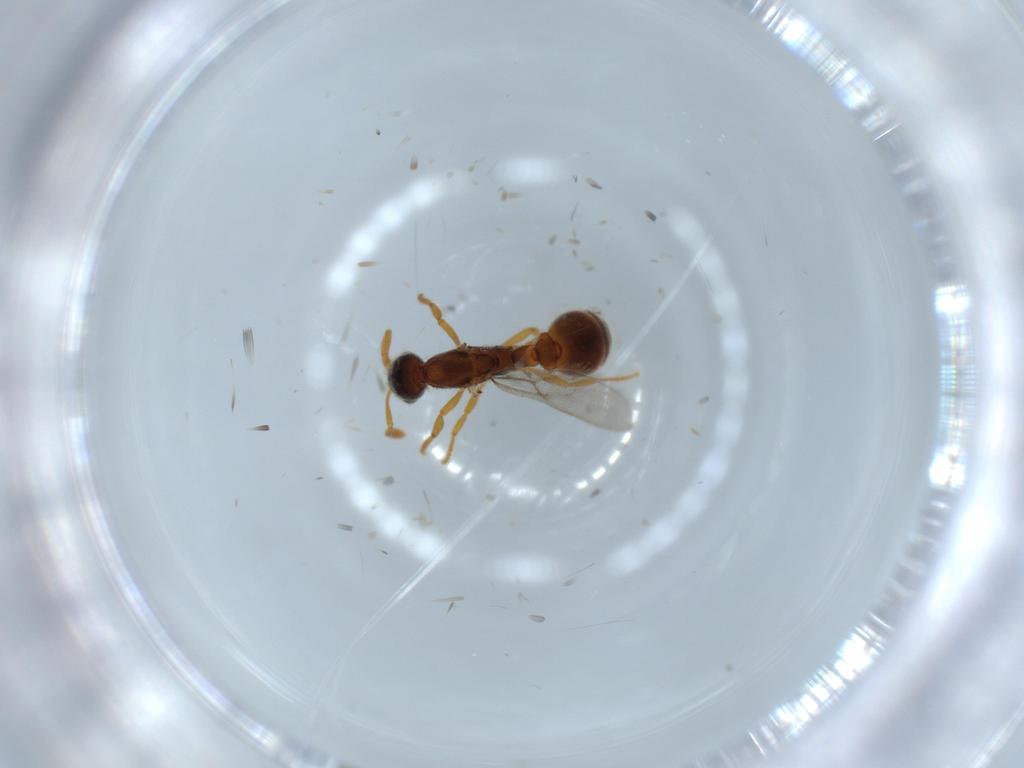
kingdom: Animalia
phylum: Arthropoda
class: Insecta
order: Hymenoptera
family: Formicidae
